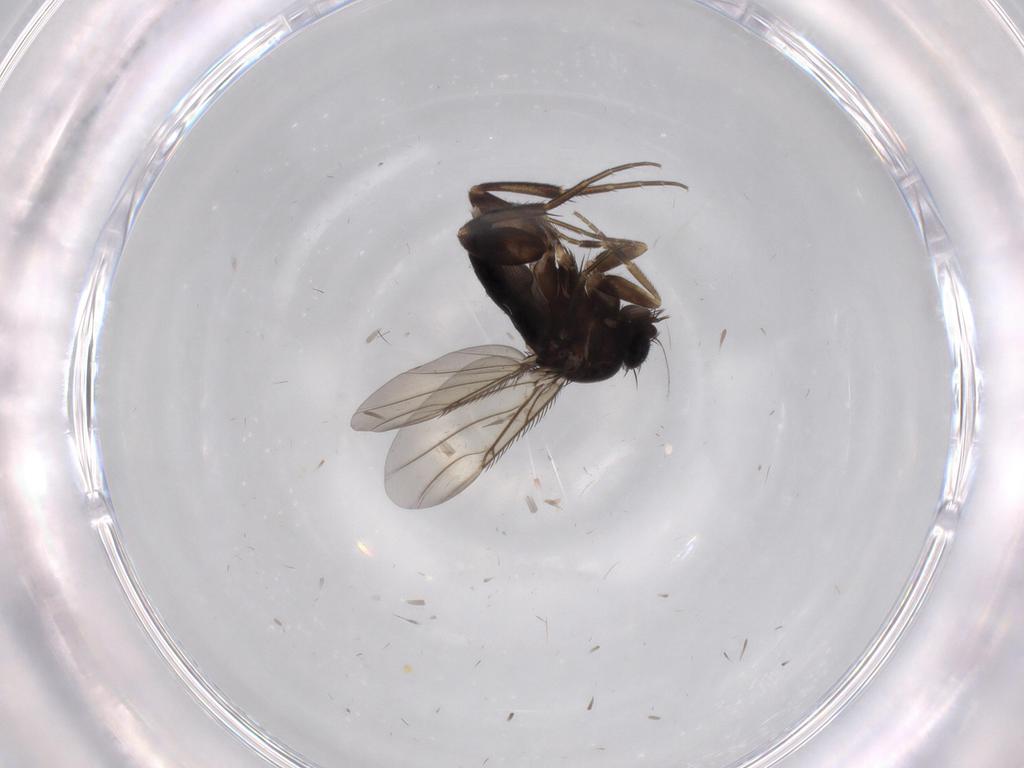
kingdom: Animalia
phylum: Arthropoda
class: Insecta
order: Diptera
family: Phoridae
